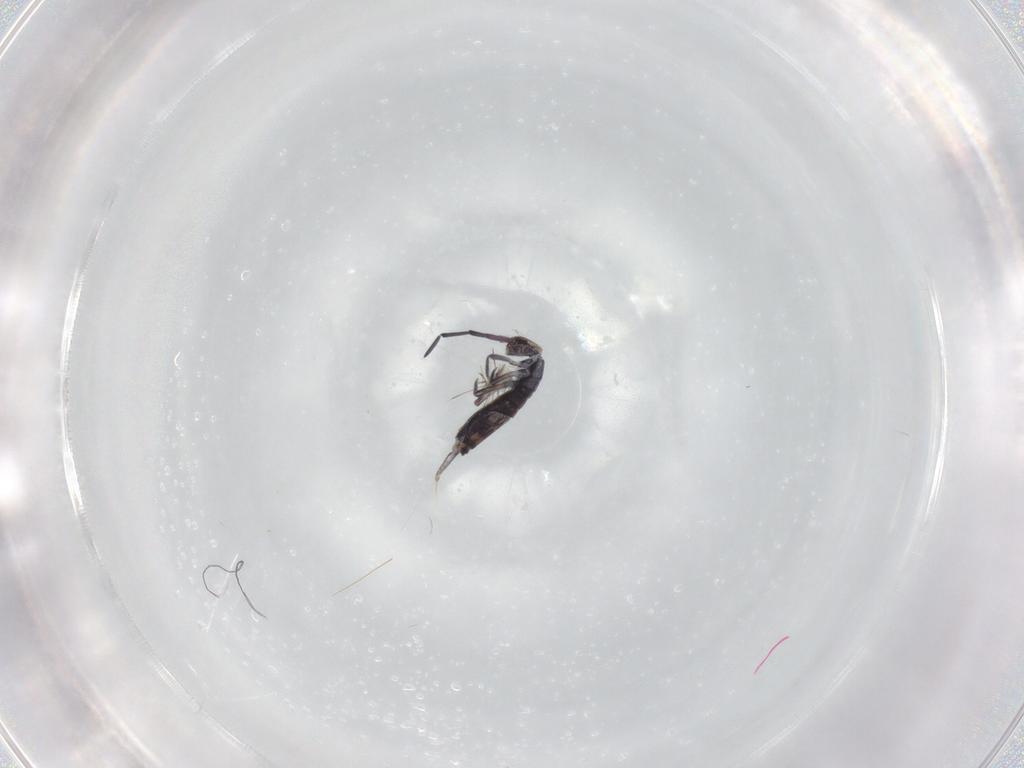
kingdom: Animalia
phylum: Arthropoda
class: Collembola
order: Entomobryomorpha
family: Entomobryidae
